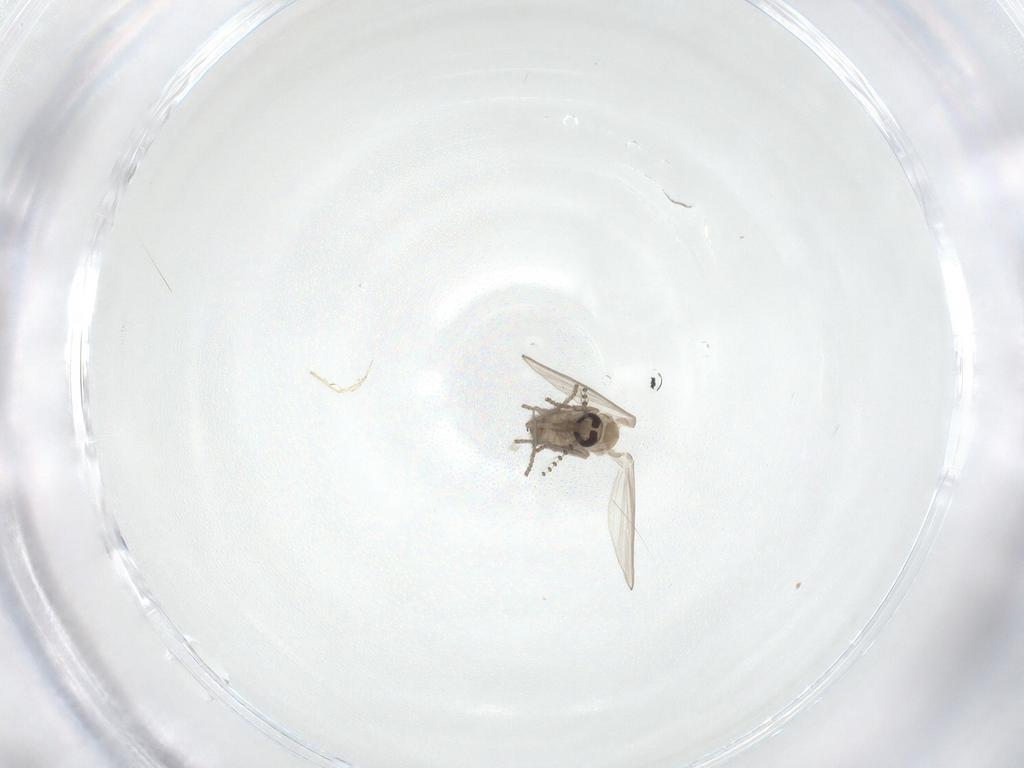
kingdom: Animalia
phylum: Arthropoda
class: Insecta
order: Diptera
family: Psychodidae
